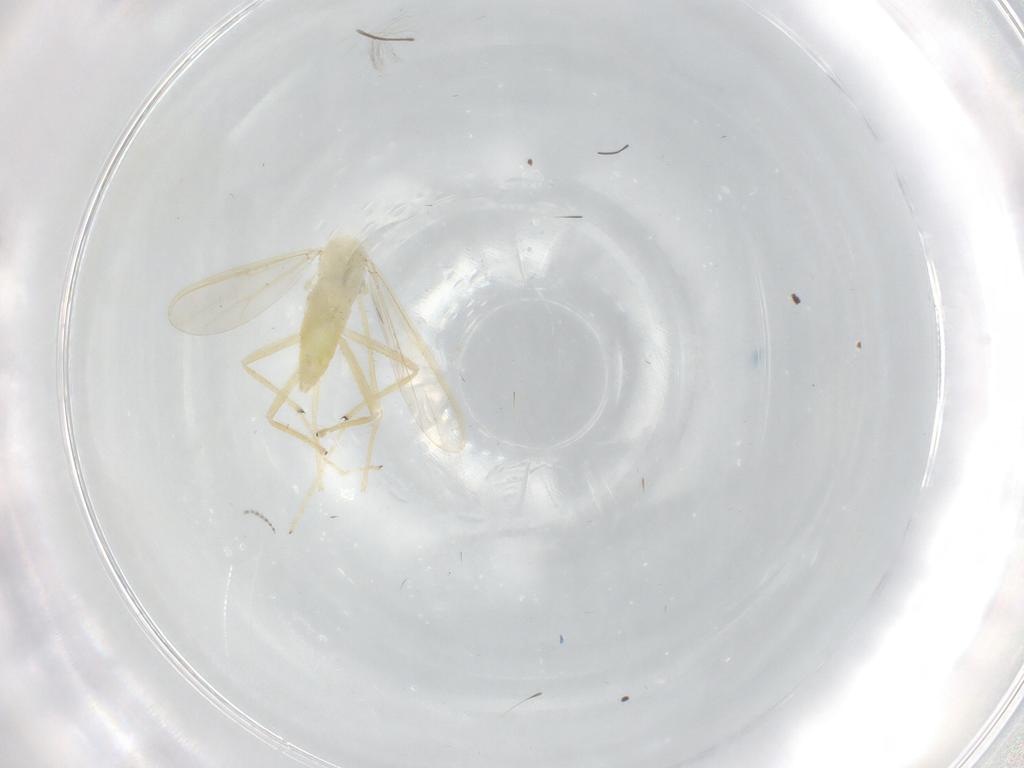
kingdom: Animalia
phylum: Arthropoda
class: Insecta
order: Diptera
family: Chironomidae
